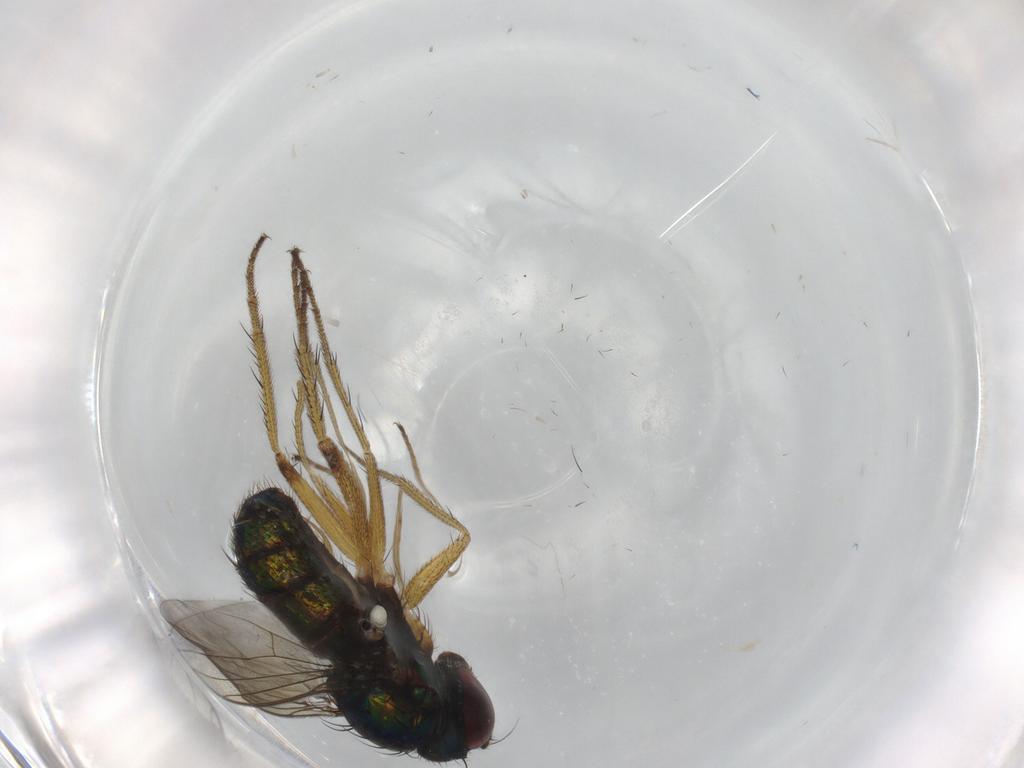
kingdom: Animalia
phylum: Arthropoda
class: Insecta
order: Diptera
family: Dolichopodidae
